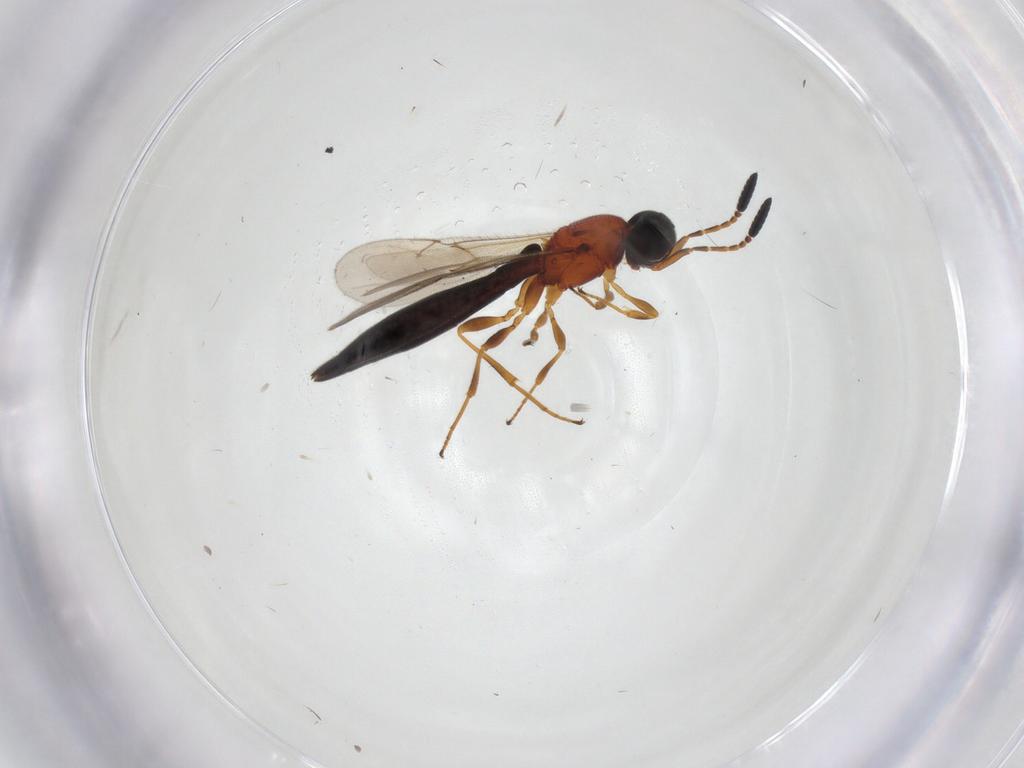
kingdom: Animalia
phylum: Arthropoda
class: Insecta
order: Hymenoptera
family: Scelionidae
